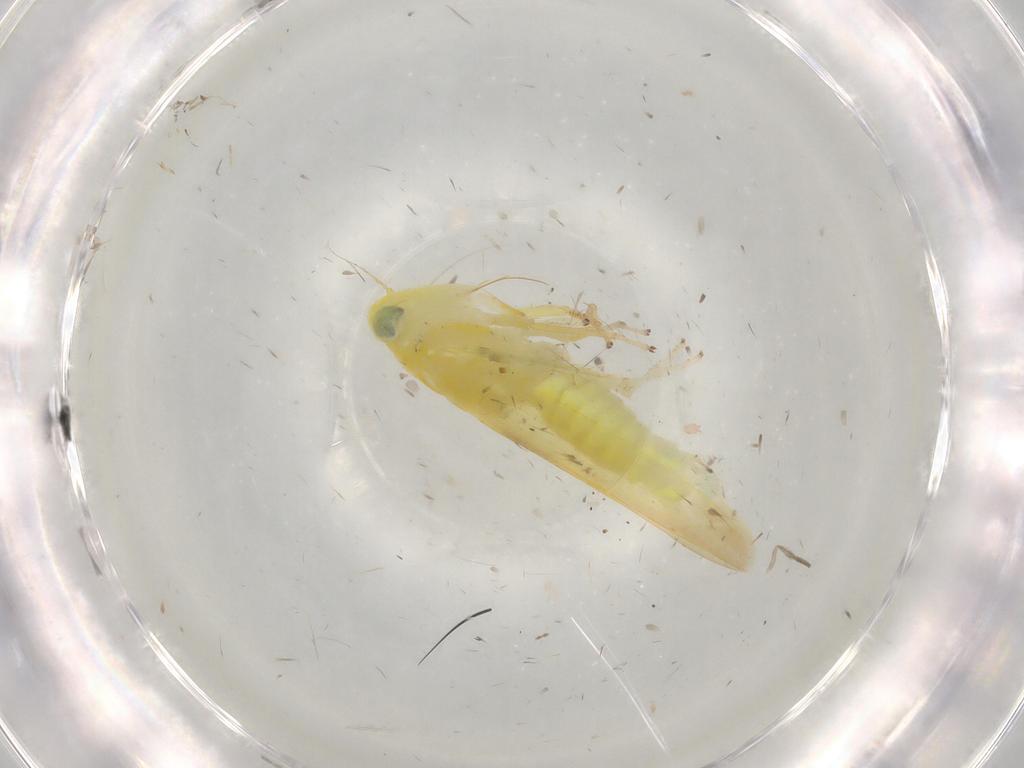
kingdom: Animalia
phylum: Arthropoda
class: Insecta
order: Hemiptera
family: Cicadellidae
